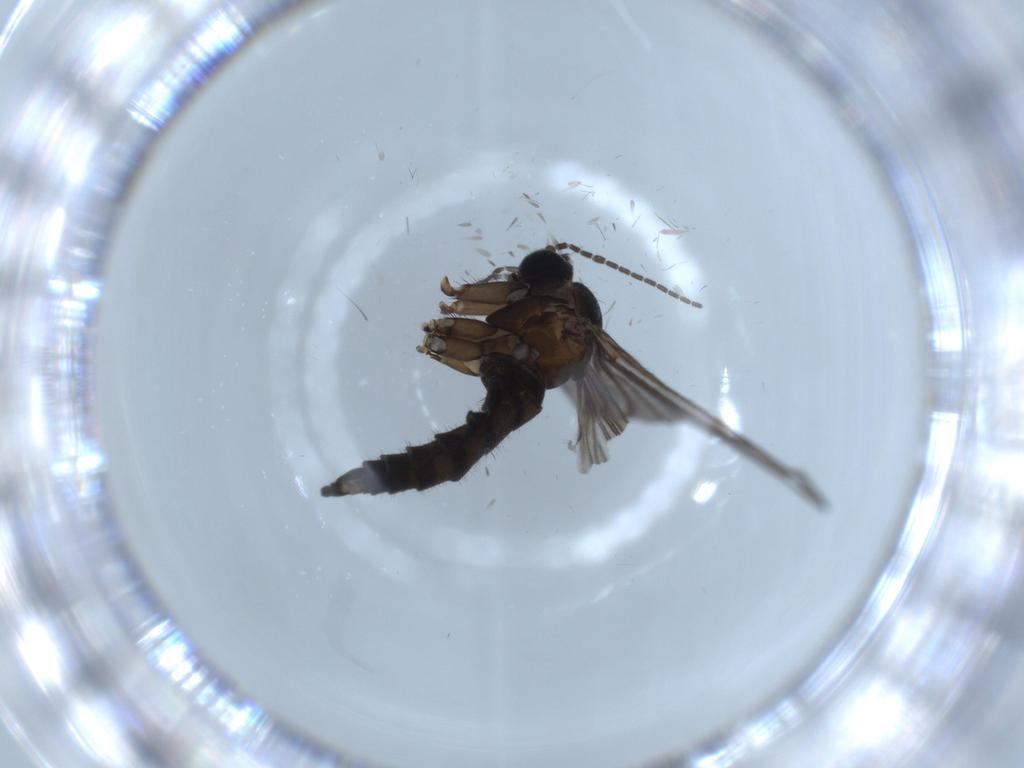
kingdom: Animalia
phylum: Arthropoda
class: Insecta
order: Diptera
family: Sciaridae
